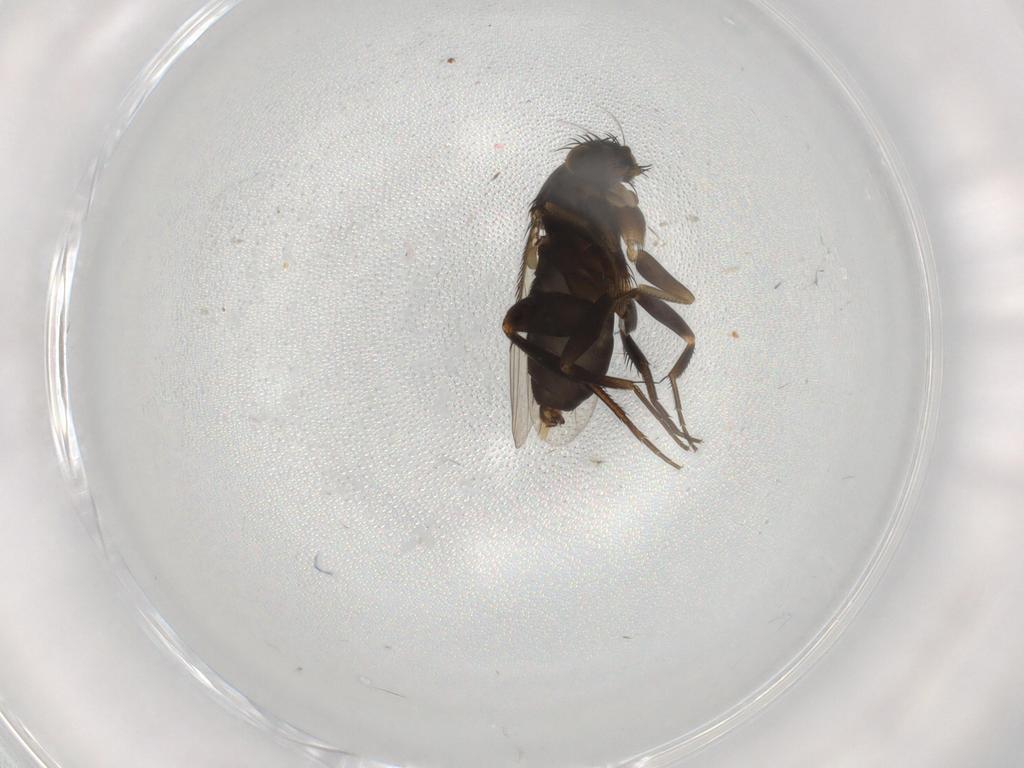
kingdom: Animalia
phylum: Arthropoda
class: Insecta
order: Diptera
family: Phoridae
